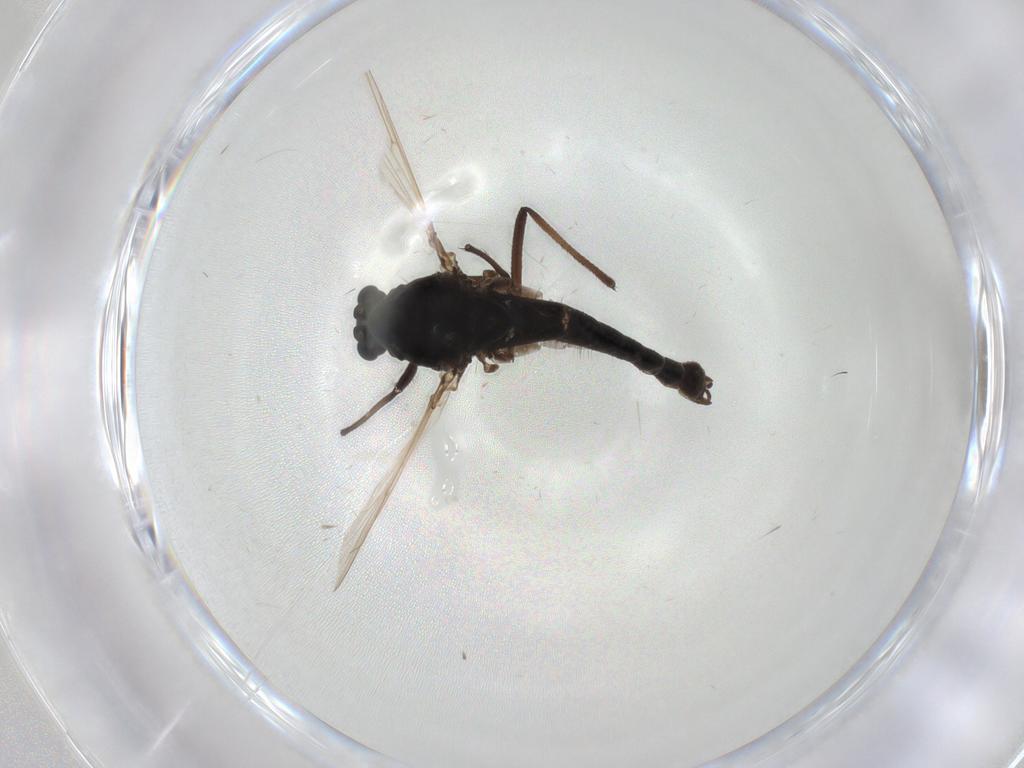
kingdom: Animalia
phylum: Arthropoda
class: Insecta
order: Diptera
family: Chironomidae
